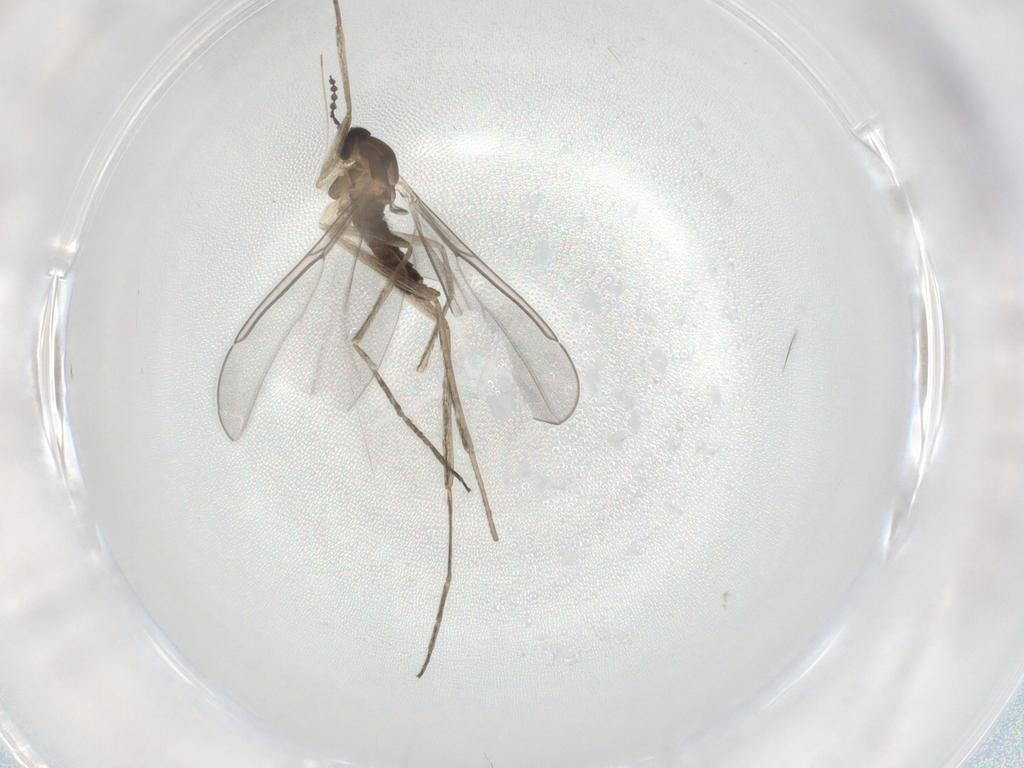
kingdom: Animalia
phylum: Arthropoda
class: Insecta
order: Diptera
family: Cecidomyiidae
